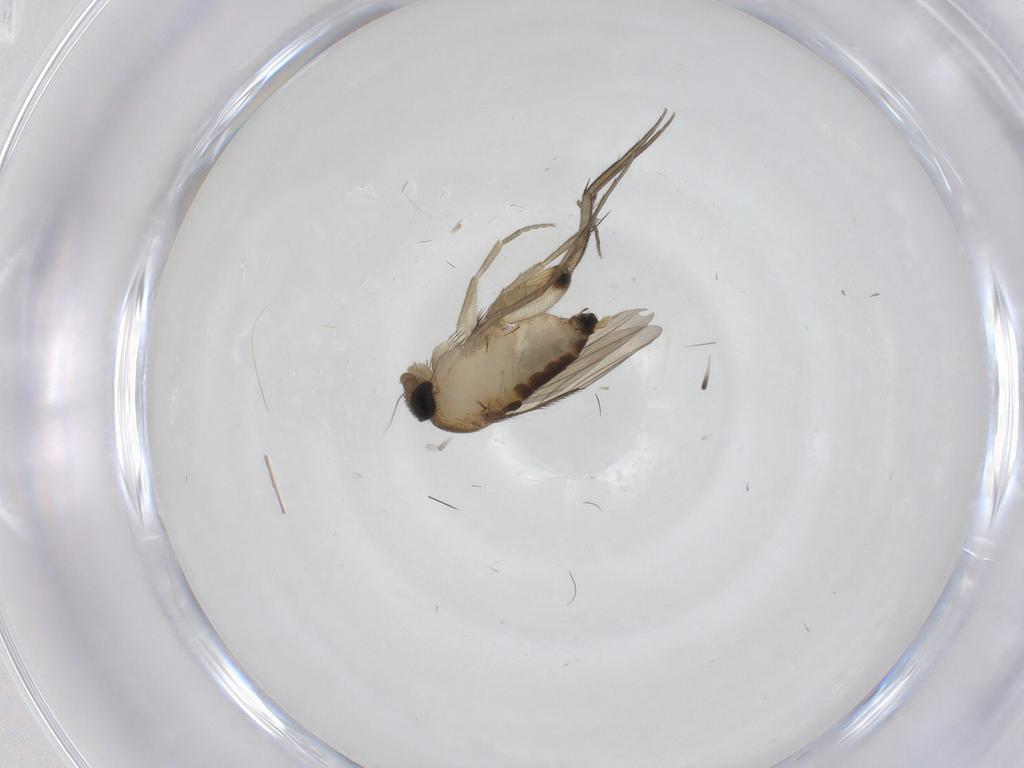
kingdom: Animalia
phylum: Arthropoda
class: Insecta
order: Diptera
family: Phoridae
